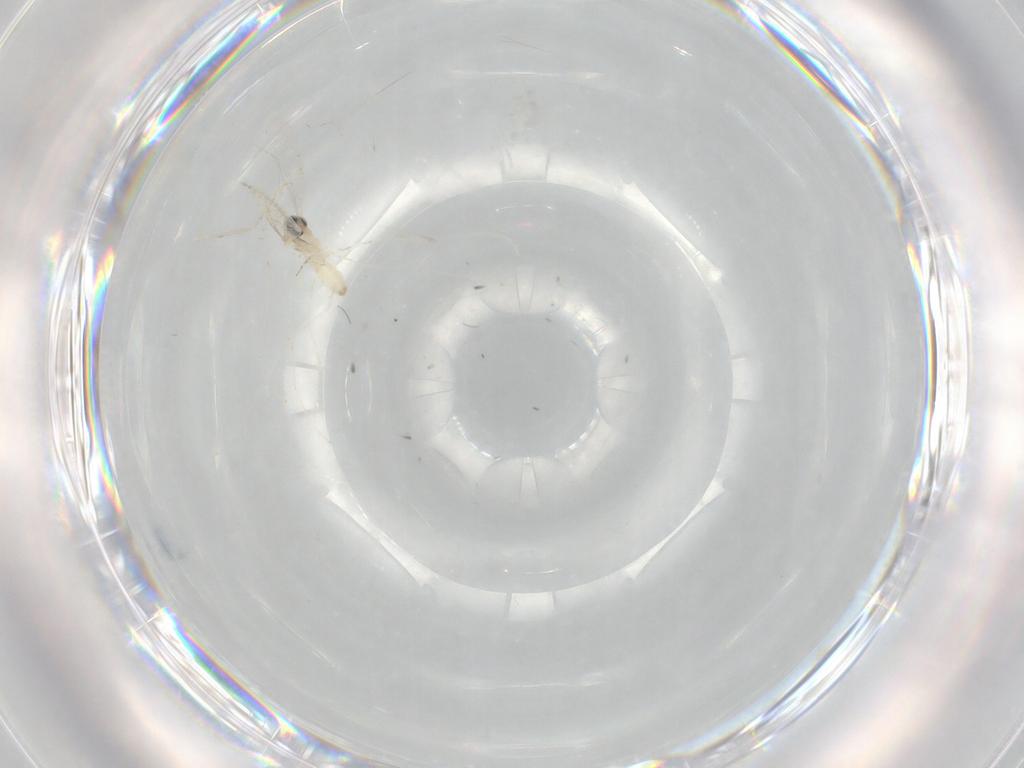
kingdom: Animalia
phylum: Arthropoda
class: Insecta
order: Diptera
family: Cecidomyiidae
